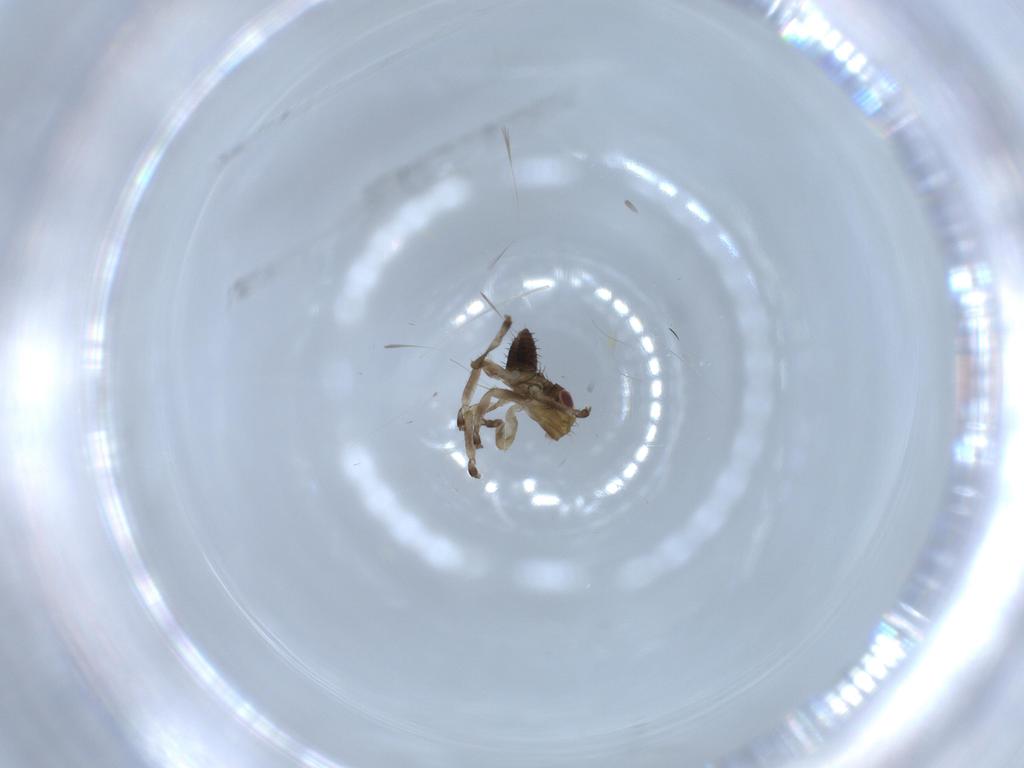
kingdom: Animalia
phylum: Arthropoda
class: Insecta
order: Hemiptera
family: Cicadellidae
